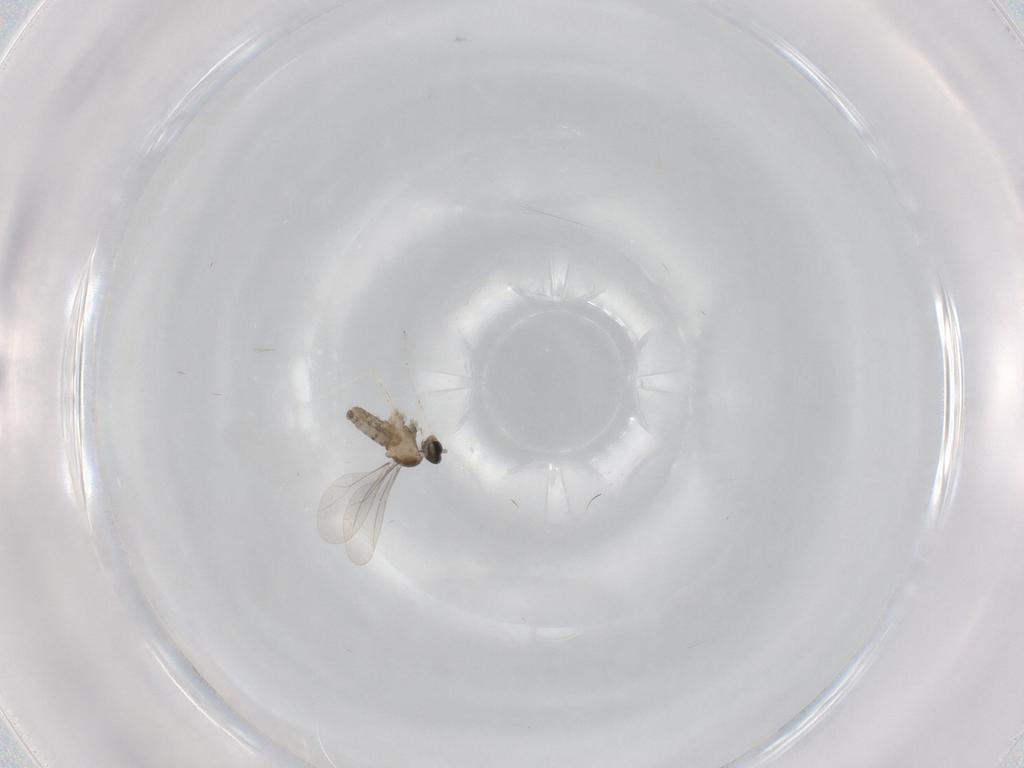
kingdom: Animalia
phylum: Arthropoda
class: Insecta
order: Diptera
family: Cecidomyiidae
